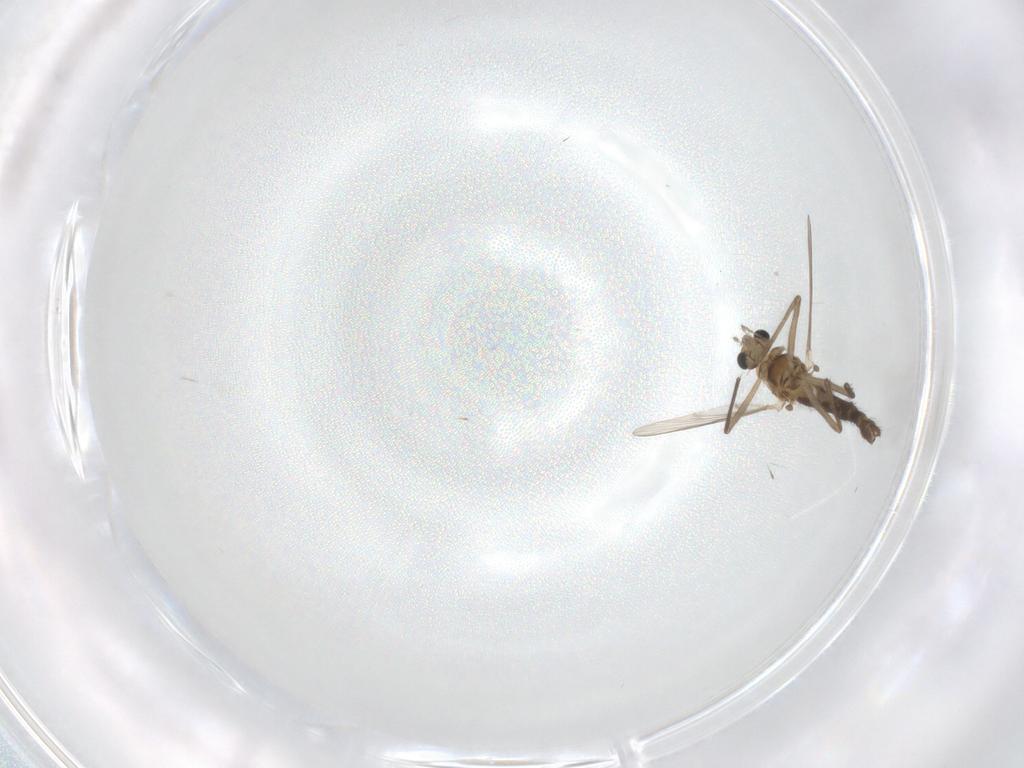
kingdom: Animalia
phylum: Arthropoda
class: Insecta
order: Diptera
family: Chironomidae
